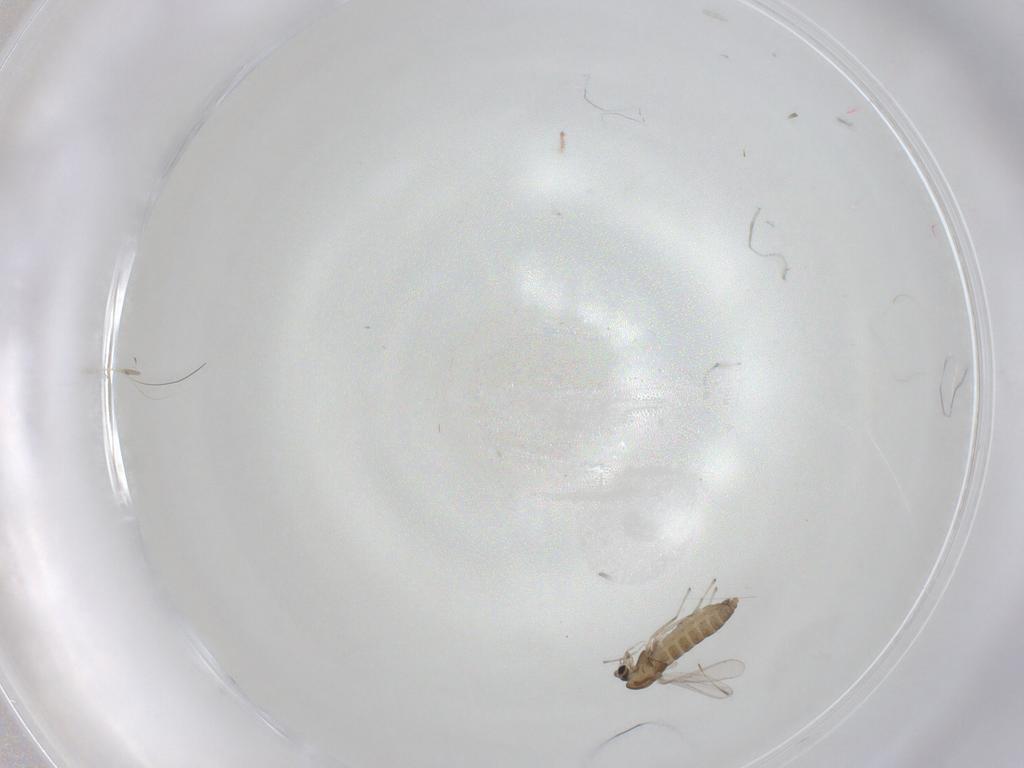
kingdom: Animalia
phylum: Arthropoda
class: Insecta
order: Diptera
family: Chironomidae
